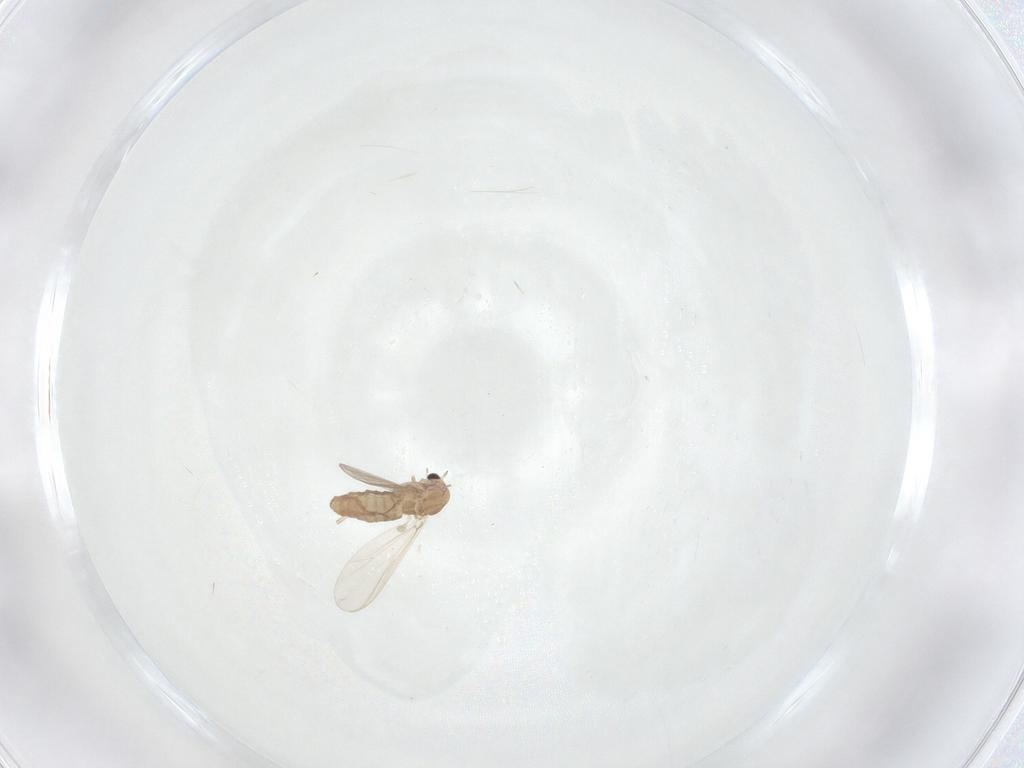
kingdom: Animalia
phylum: Arthropoda
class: Insecta
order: Diptera
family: Chironomidae
